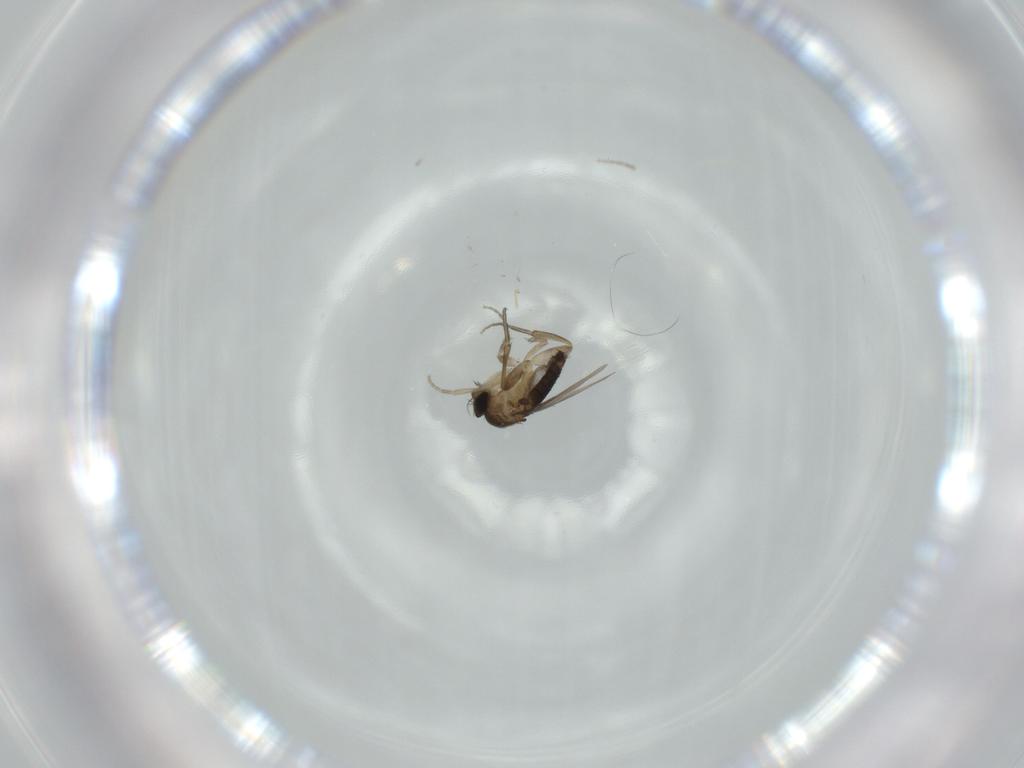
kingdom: Animalia
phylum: Arthropoda
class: Insecta
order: Diptera
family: Phoridae
